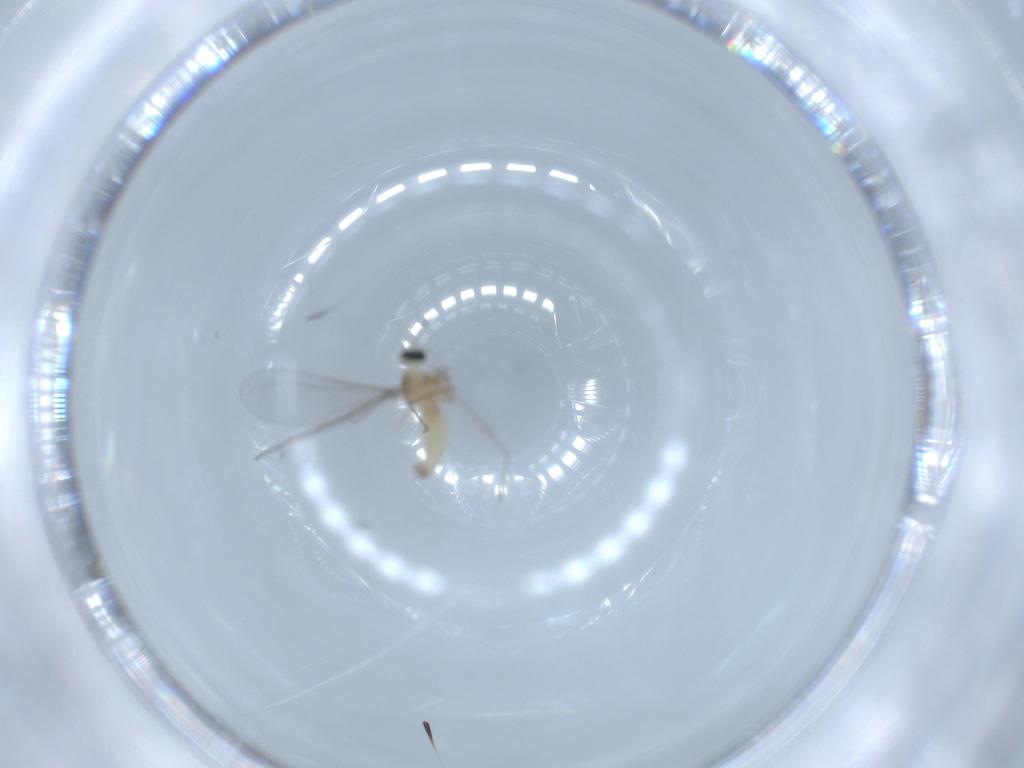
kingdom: Animalia
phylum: Arthropoda
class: Insecta
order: Diptera
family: Cecidomyiidae
